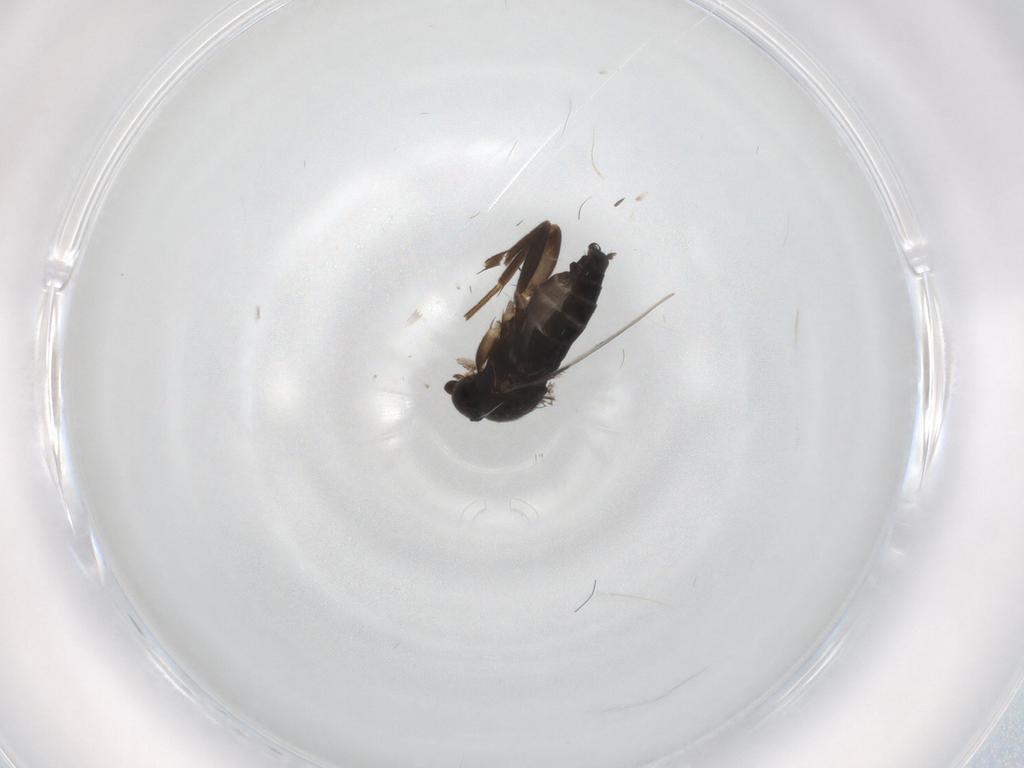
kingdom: Animalia
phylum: Arthropoda
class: Insecta
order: Diptera
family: Phoridae
